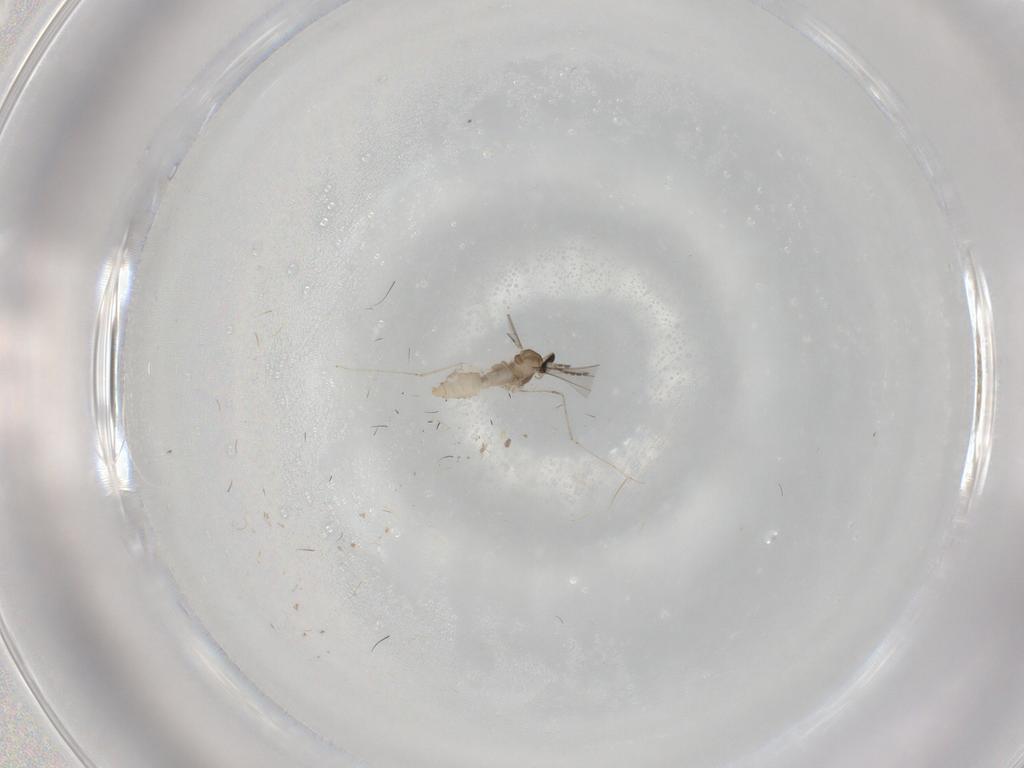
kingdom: Animalia
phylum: Arthropoda
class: Insecta
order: Diptera
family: Cecidomyiidae
